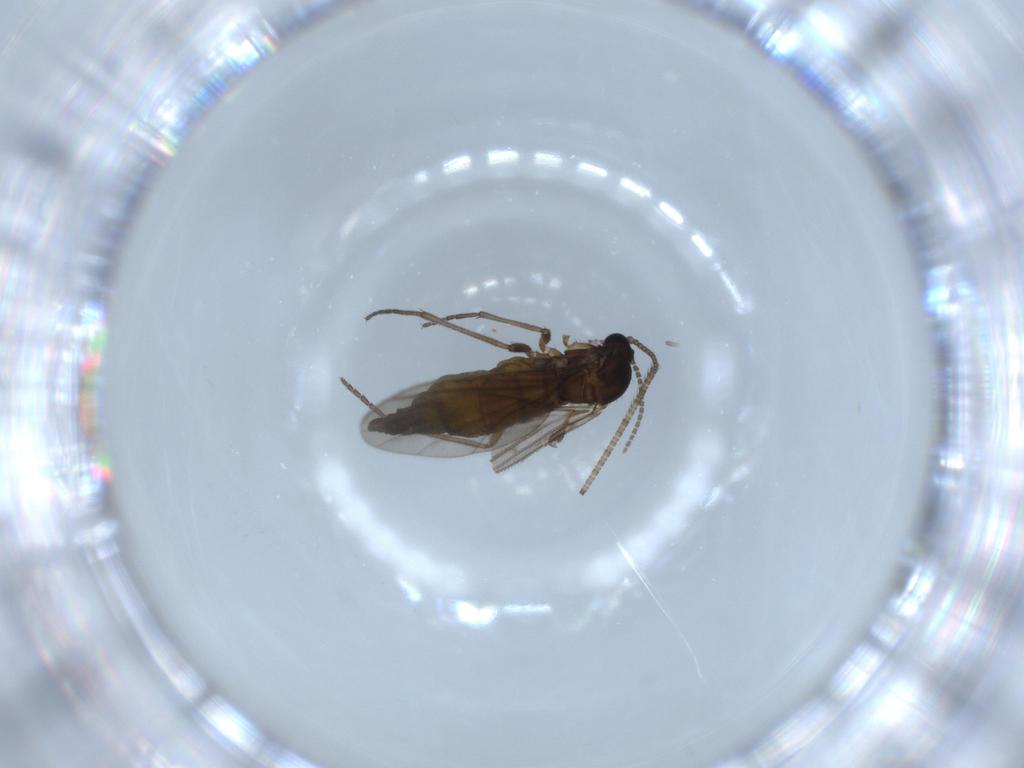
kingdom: Animalia
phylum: Arthropoda
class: Insecta
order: Diptera
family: Sciaridae
